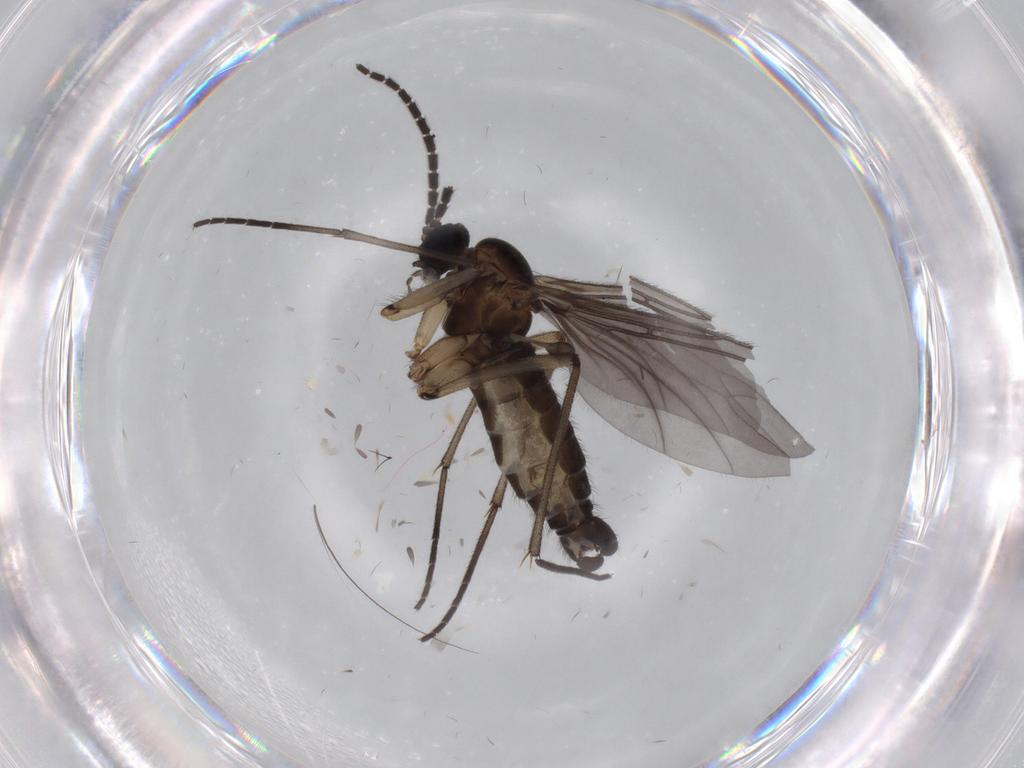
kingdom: Animalia
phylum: Arthropoda
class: Insecta
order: Diptera
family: Sciaridae
